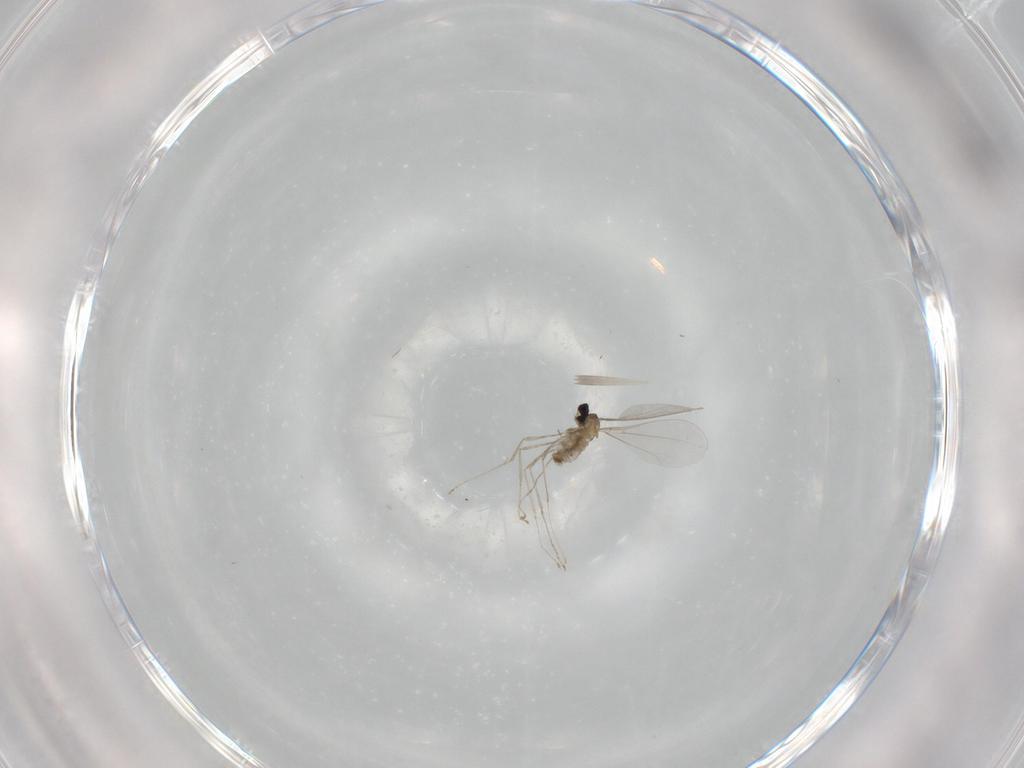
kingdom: Animalia
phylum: Arthropoda
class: Insecta
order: Diptera
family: Cecidomyiidae
